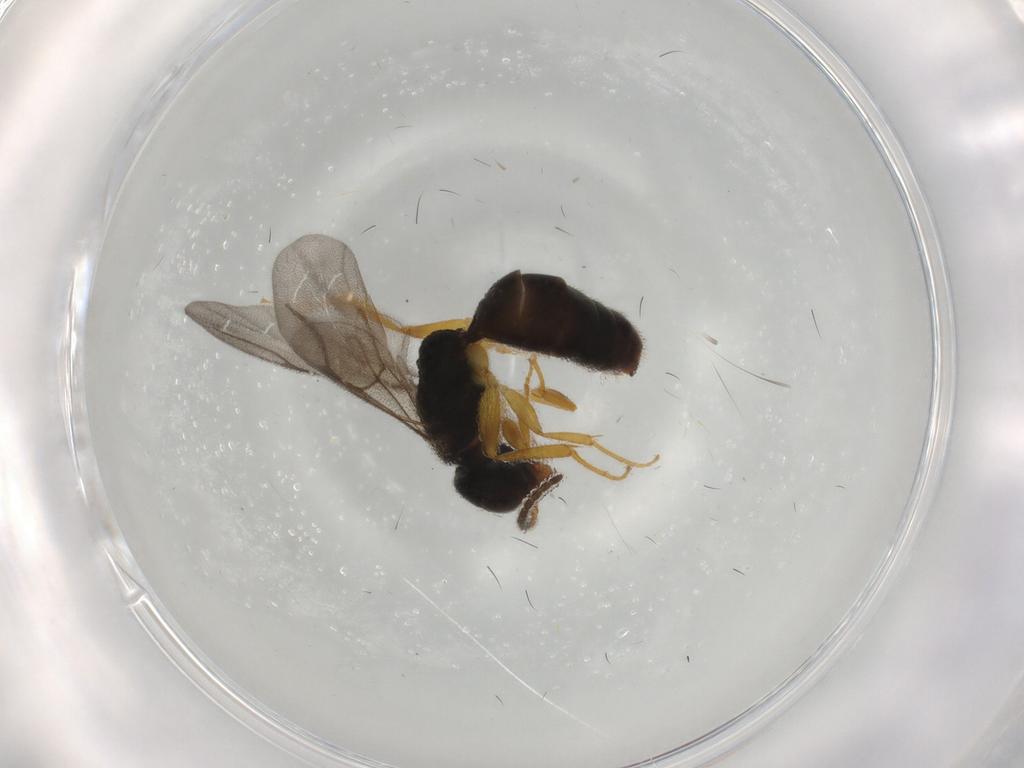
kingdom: Animalia
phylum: Arthropoda
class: Insecta
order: Hymenoptera
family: Bethylidae
